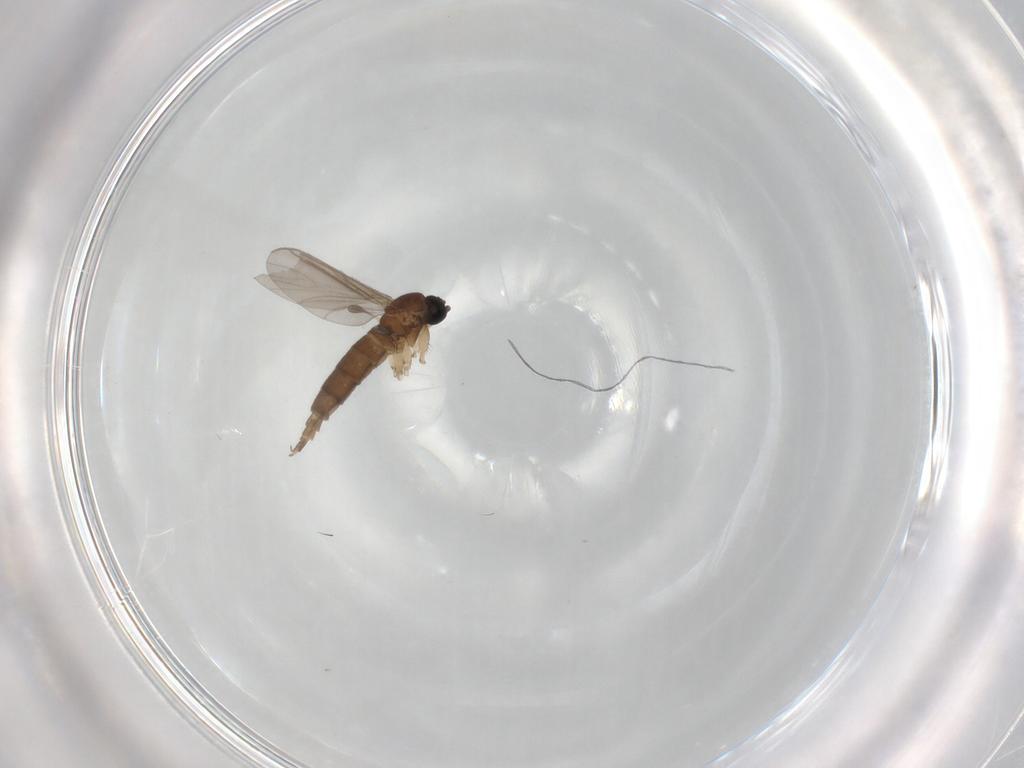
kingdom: Animalia
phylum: Arthropoda
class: Insecta
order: Diptera
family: Sciaridae
